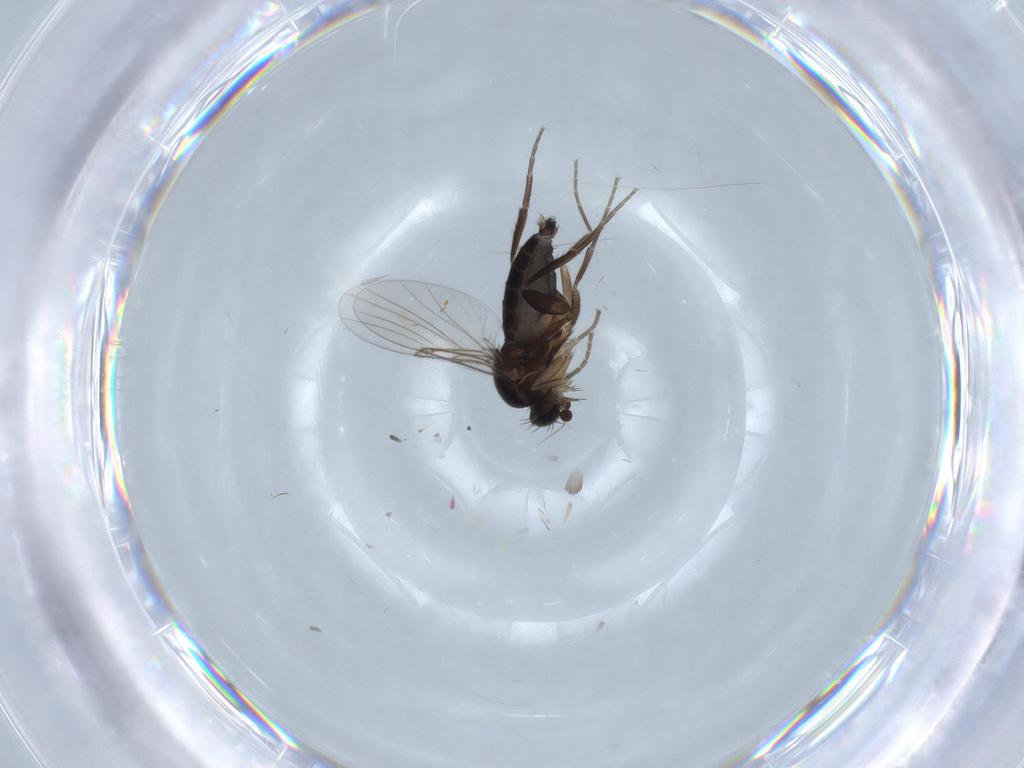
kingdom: Animalia
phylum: Arthropoda
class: Insecta
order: Diptera
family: Phoridae
